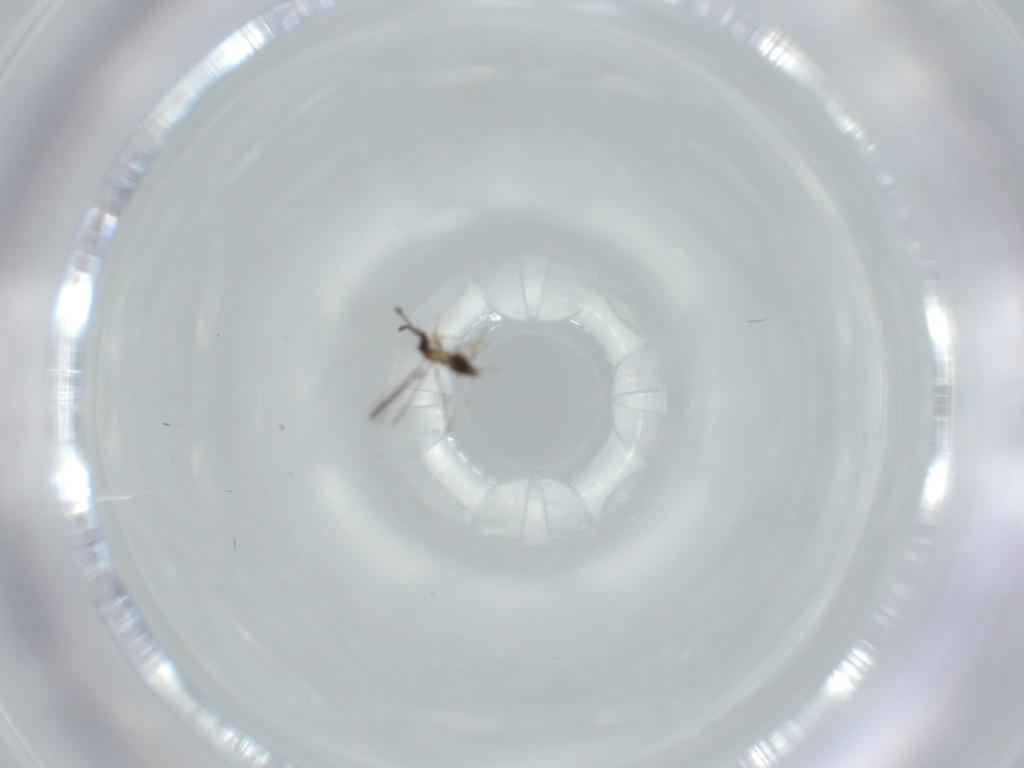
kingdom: Animalia
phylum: Arthropoda
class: Insecta
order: Hymenoptera
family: Mymaridae
